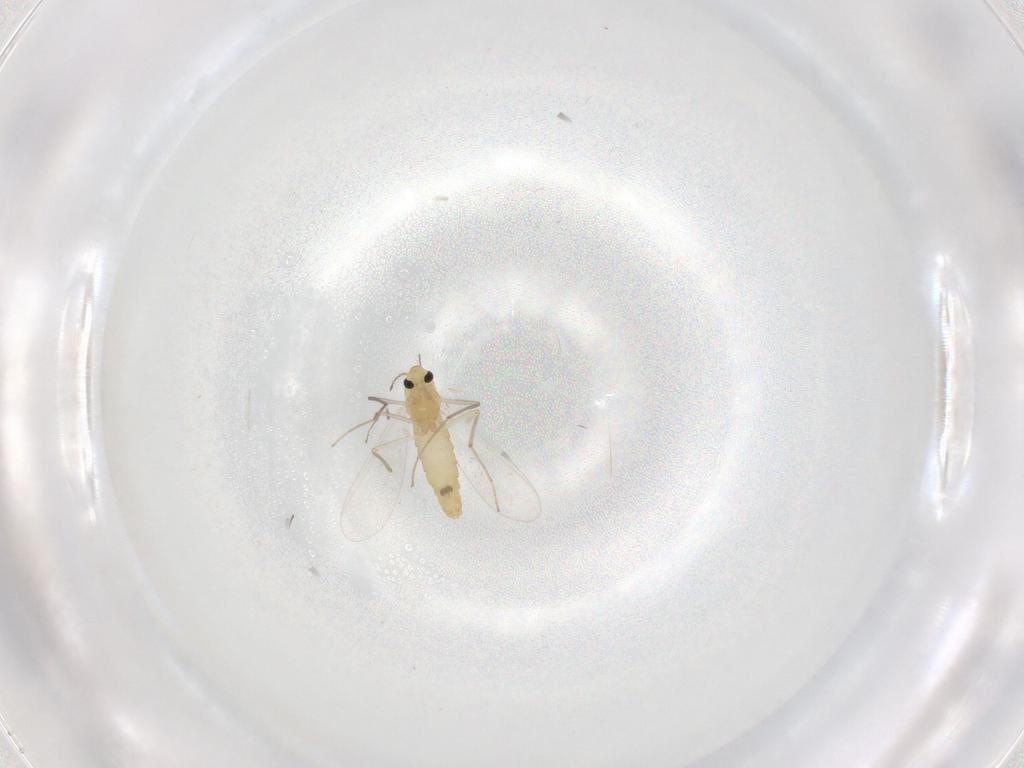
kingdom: Animalia
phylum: Arthropoda
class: Insecta
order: Diptera
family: Chironomidae
